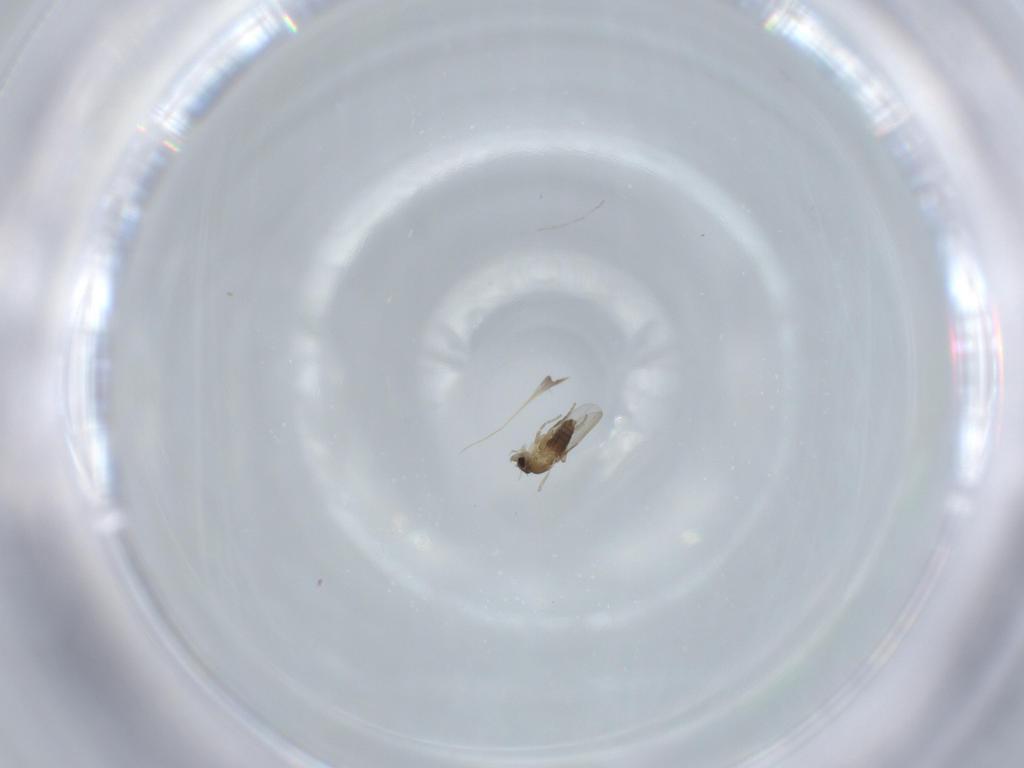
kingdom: Animalia
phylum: Arthropoda
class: Insecta
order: Diptera
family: Phoridae
